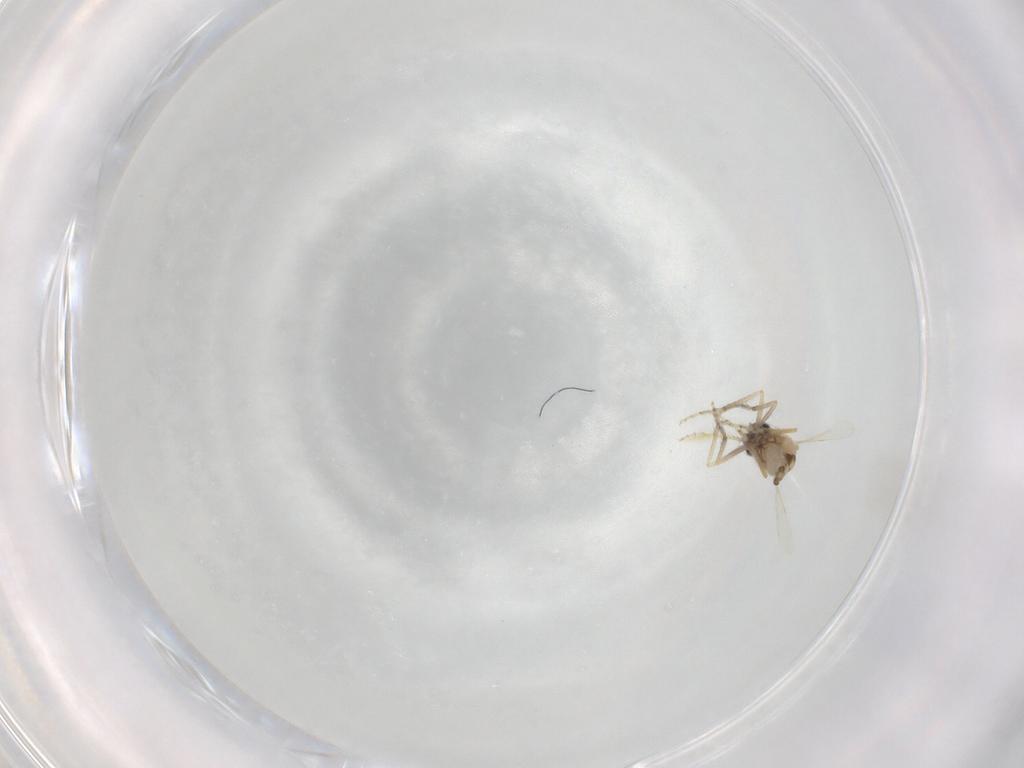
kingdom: Animalia
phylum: Arthropoda
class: Insecta
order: Diptera
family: Ceratopogonidae
